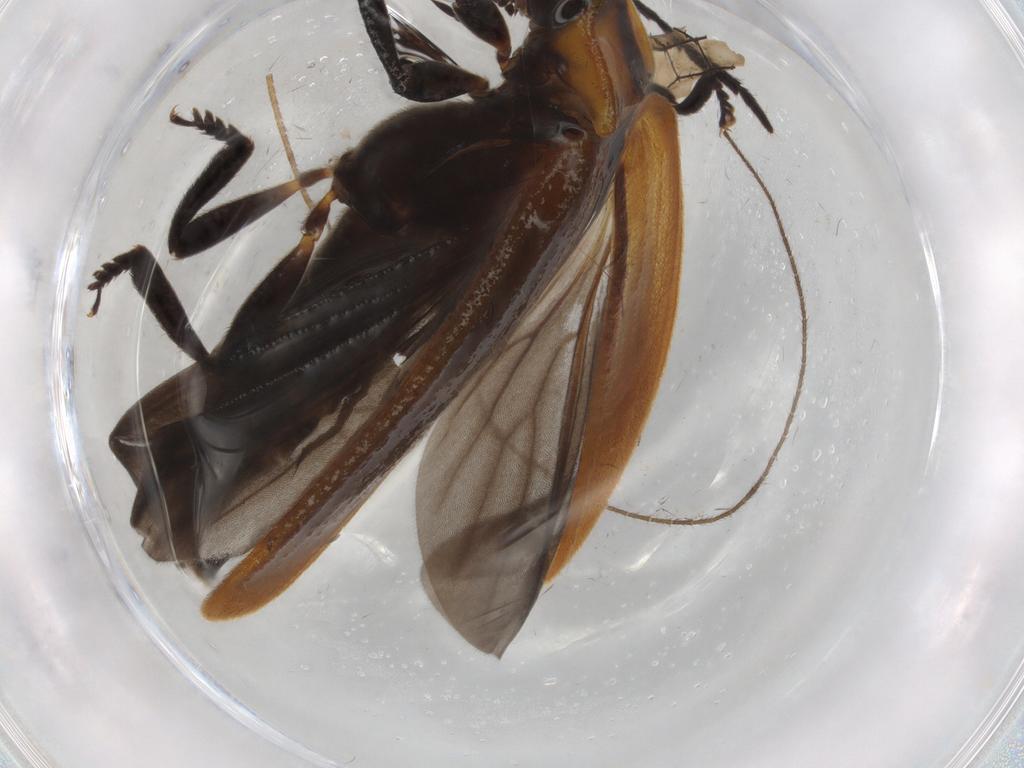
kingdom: Animalia
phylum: Arthropoda
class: Insecta
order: Coleoptera
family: Lycidae
